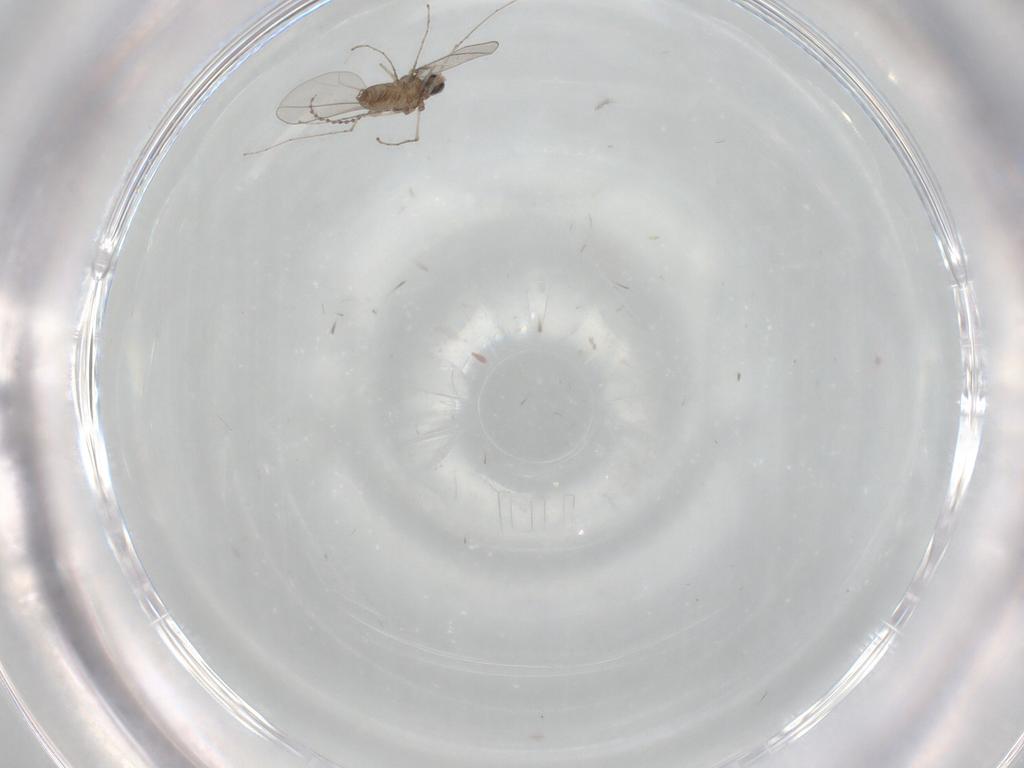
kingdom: Animalia
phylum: Arthropoda
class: Insecta
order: Diptera
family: Cecidomyiidae
